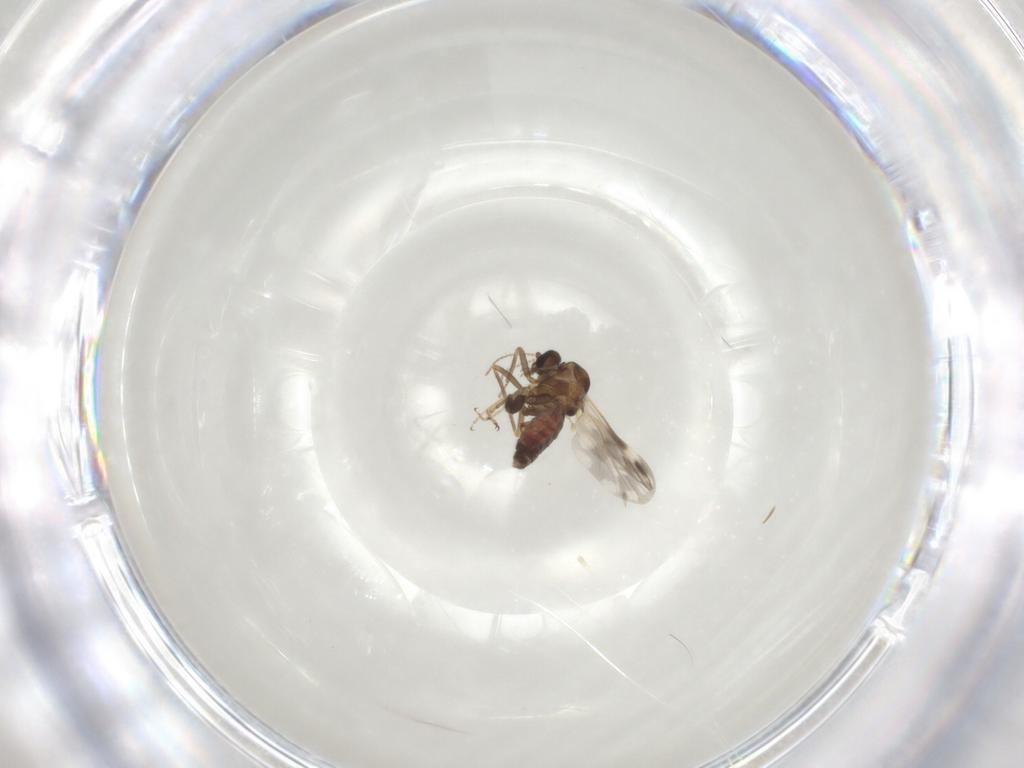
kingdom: Animalia
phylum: Arthropoda
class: Insecta
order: Diptera
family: Ceratopogonidae
